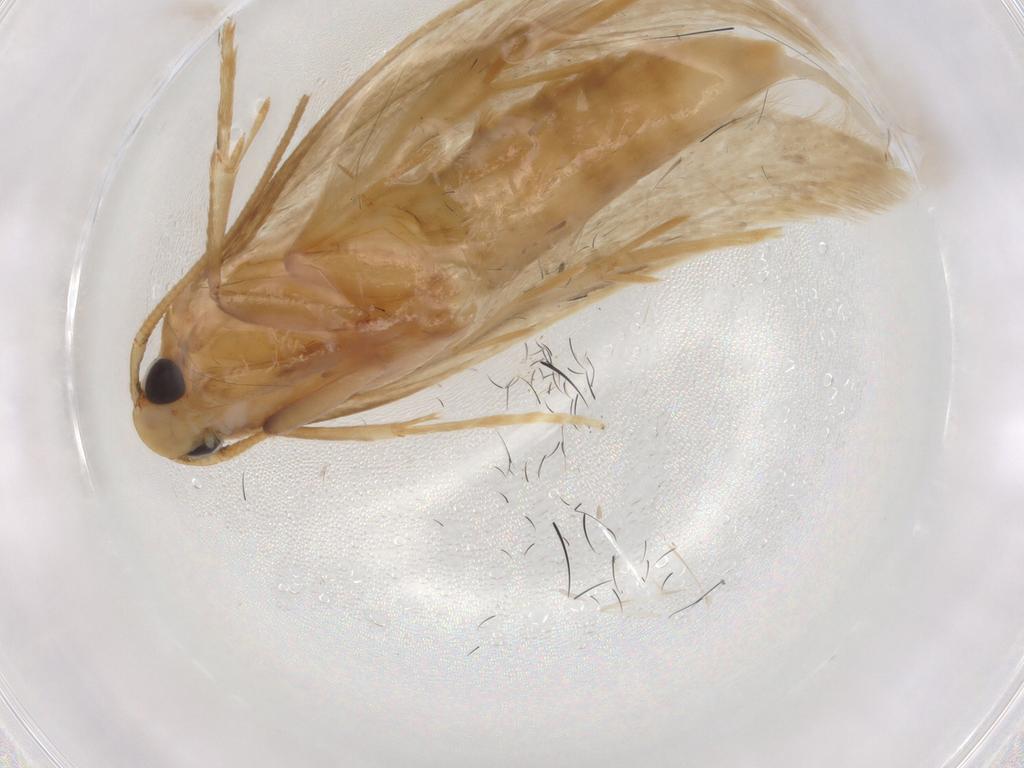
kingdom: Animalia
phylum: Arthropoda
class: Insecta
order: Lepidoptera
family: Tineidae
